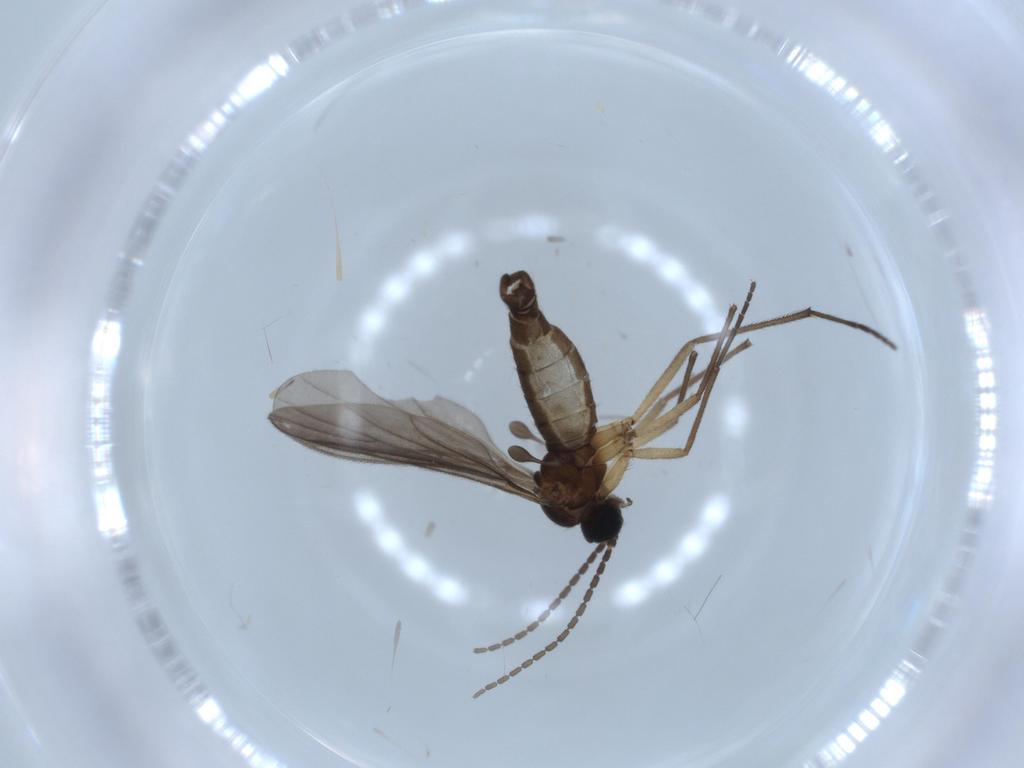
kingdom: Animalia
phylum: Arthropoda
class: Insecta
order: Diptera
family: Sciaridae
